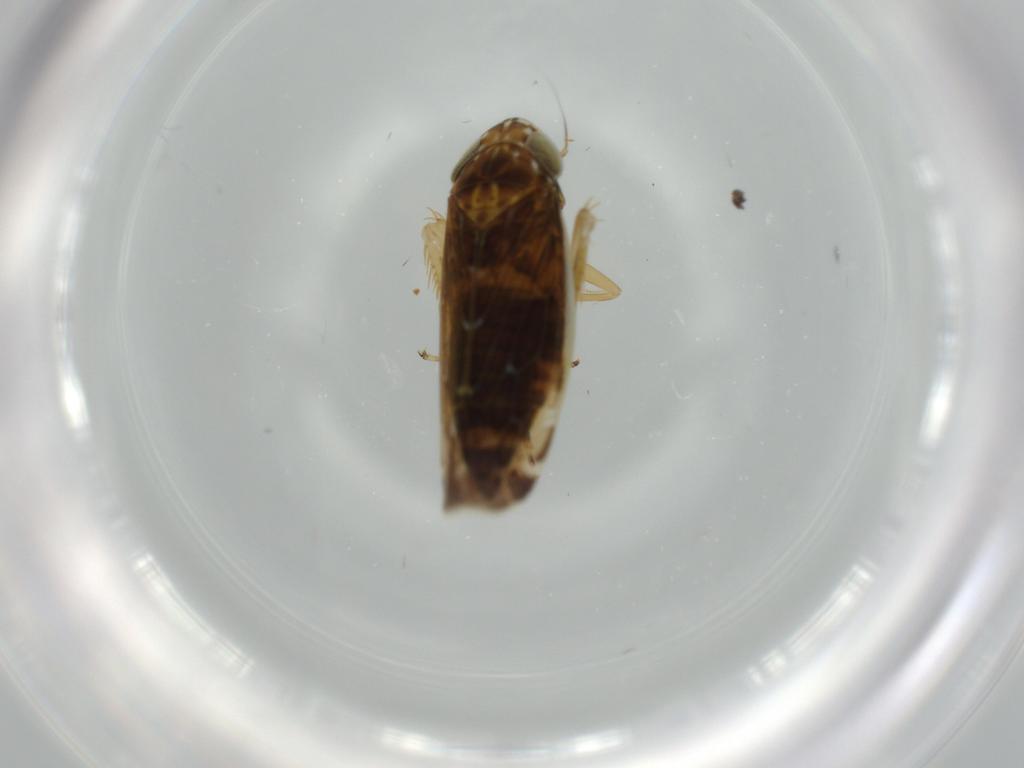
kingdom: Animalia
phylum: Arthropoda
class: Insecta
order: Hemiptera
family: Cicadellidae
